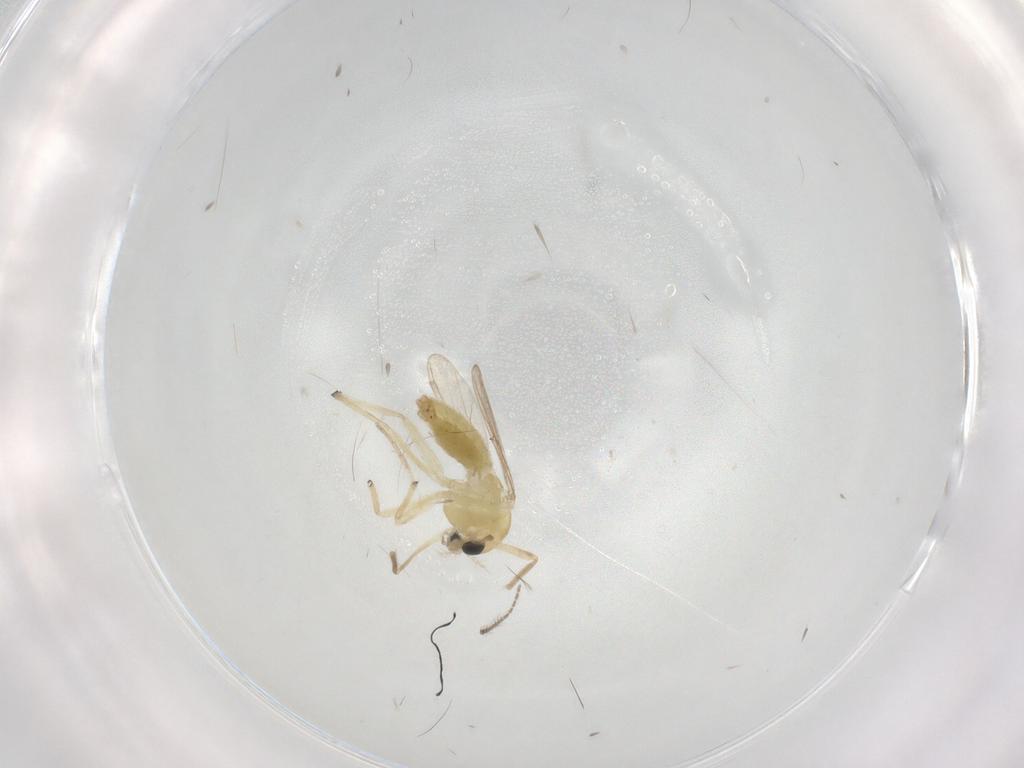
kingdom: Animalia
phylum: Arthropoda
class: Insecta
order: Diptera
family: Chironomidae
